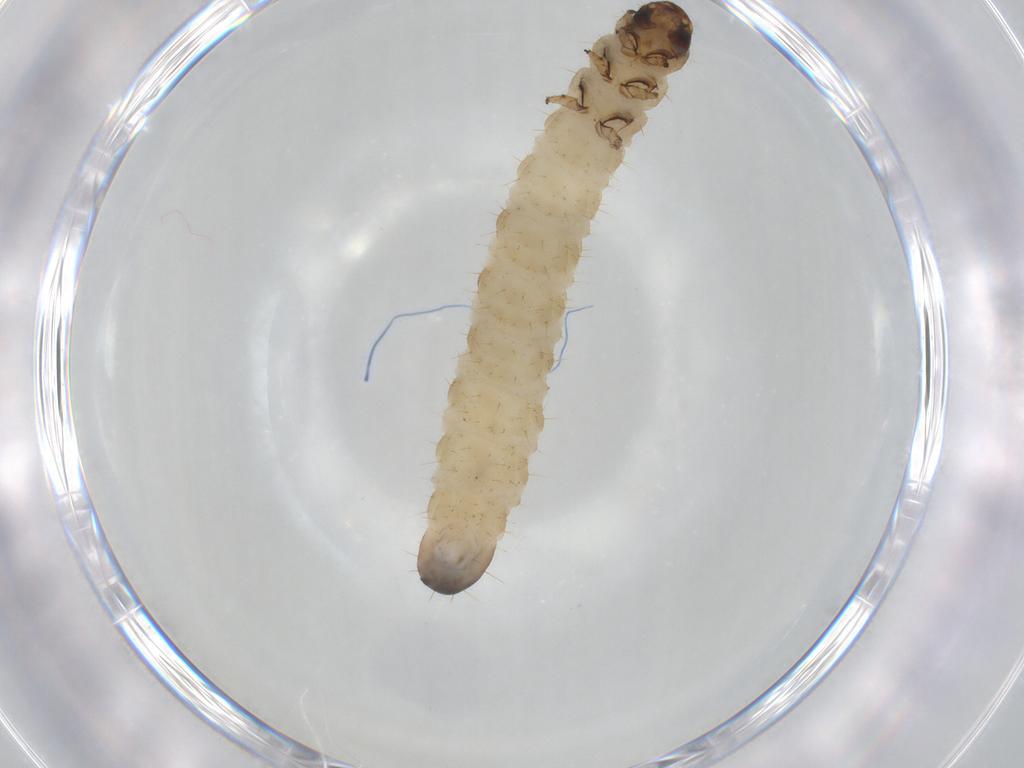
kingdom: Animalia
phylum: Arthropoda
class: Insecta
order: Coleoptera
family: Chrysomelidae
